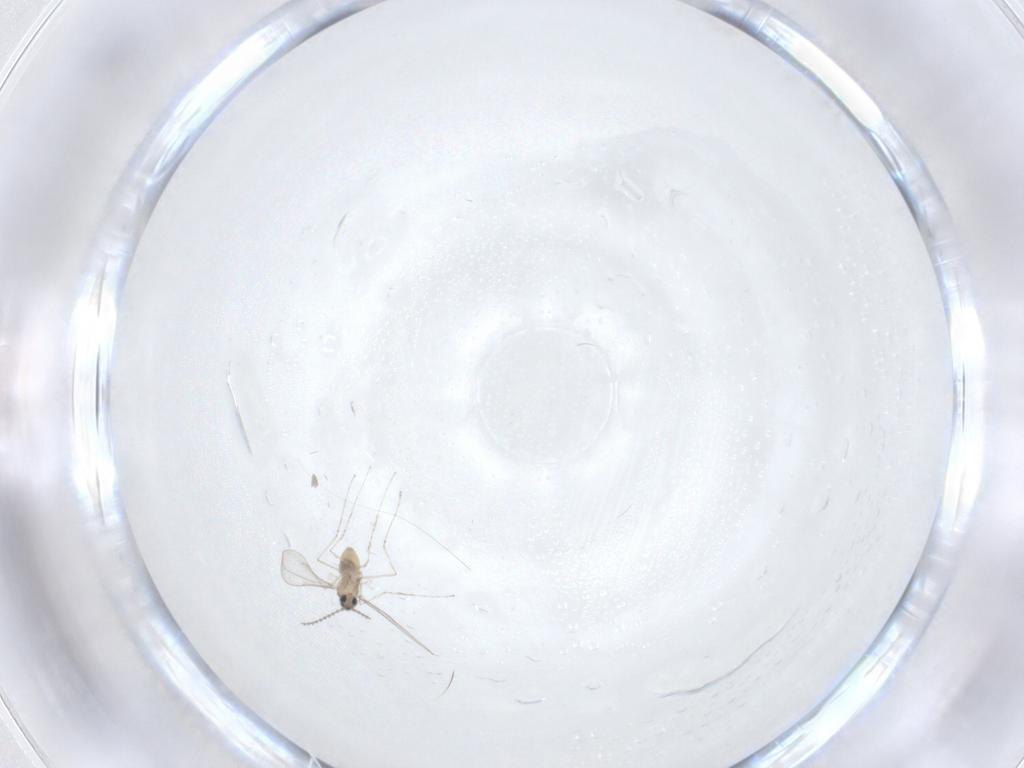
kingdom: Animalia
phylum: Arthropoda
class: Insecta
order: Diptera
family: Cecidomyiidae
